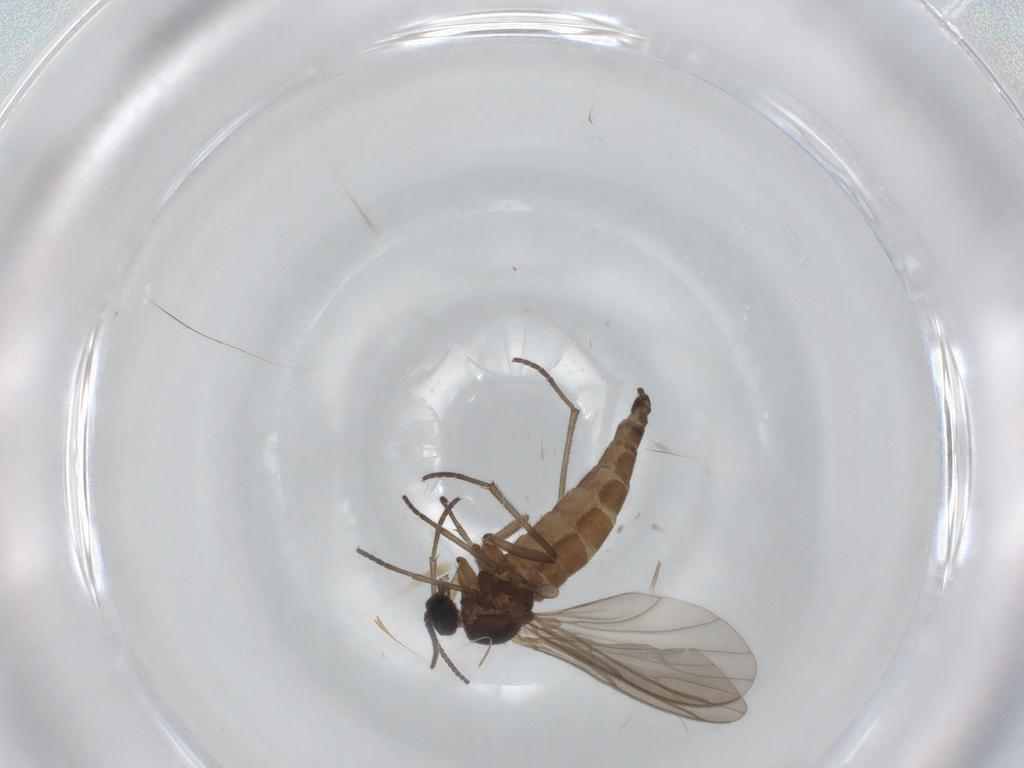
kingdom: Animalia
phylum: Arthropoda
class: Insecta
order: Diptera
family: Sciaridae
